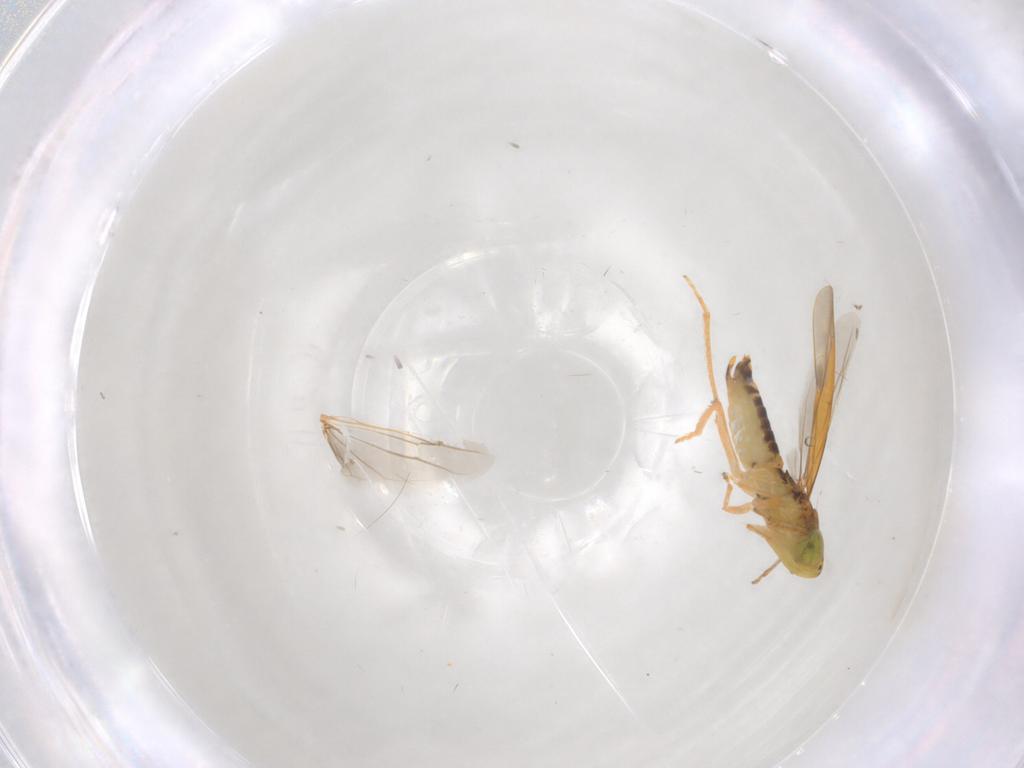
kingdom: Animalia
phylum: Arthropoda
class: Insecta
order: Hemiptera
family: Cicadellidae
